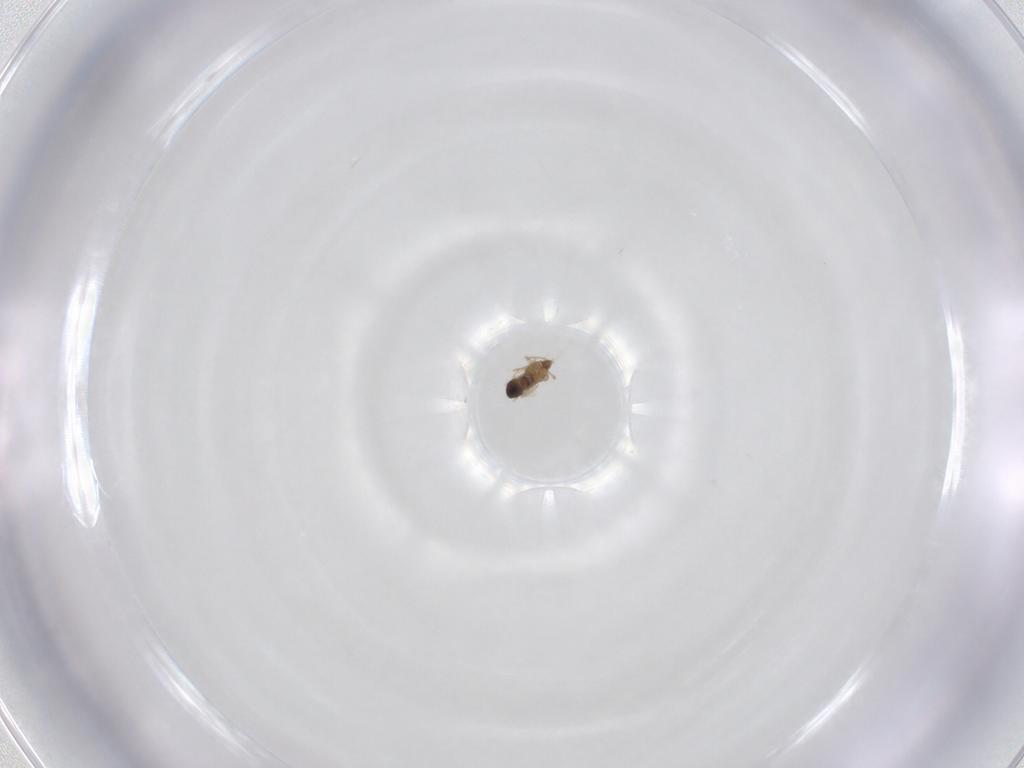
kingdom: Animalia
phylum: Arthropoda
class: Insecta
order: Diptera
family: Cecidomyiidae
